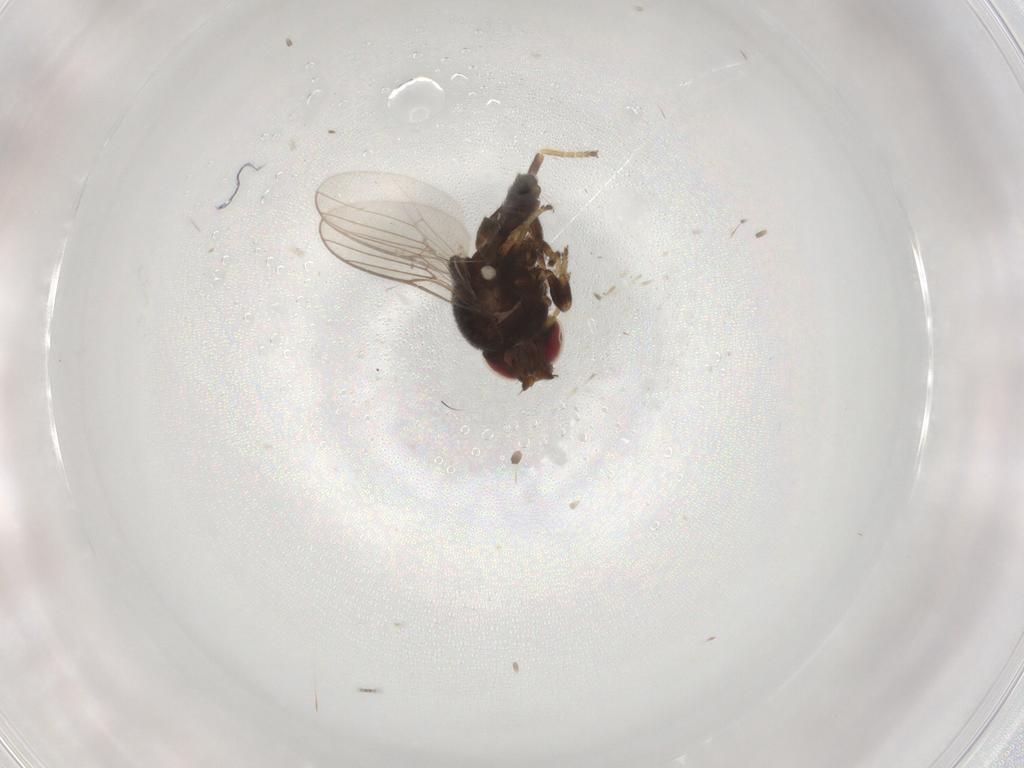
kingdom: Animalia
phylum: Arthropoda
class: Insecta
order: Diptera
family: Chloropidae
